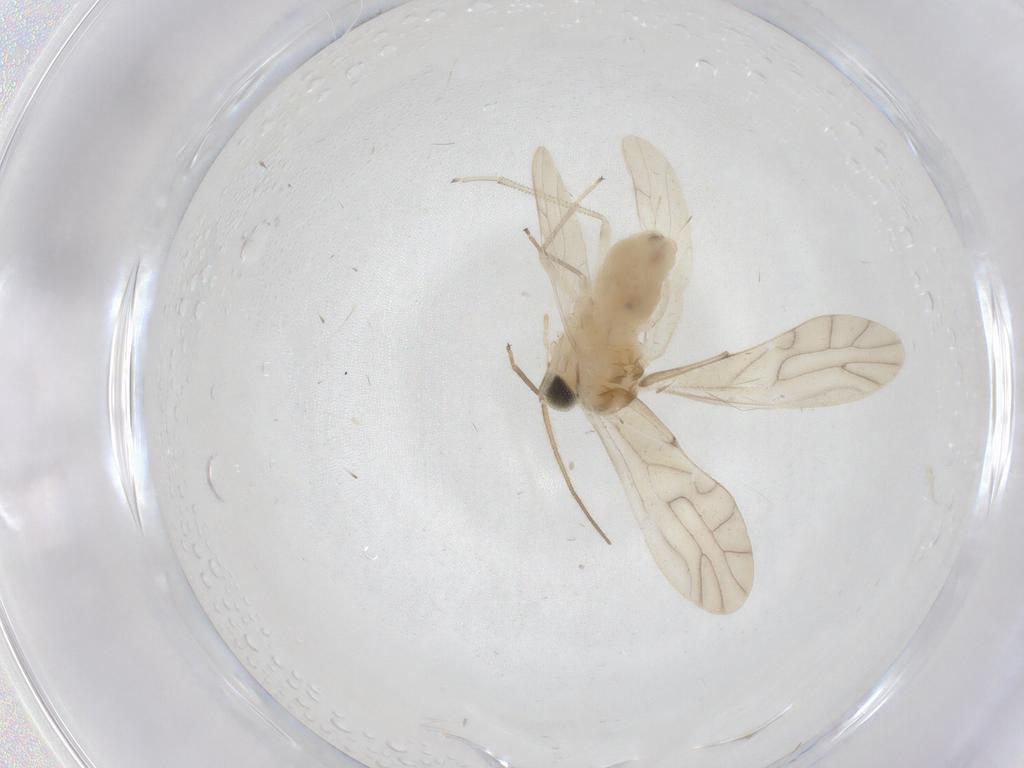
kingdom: Animalia
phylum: Arthropoda
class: Insecta
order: Psocodea
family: Caeciliusidae
